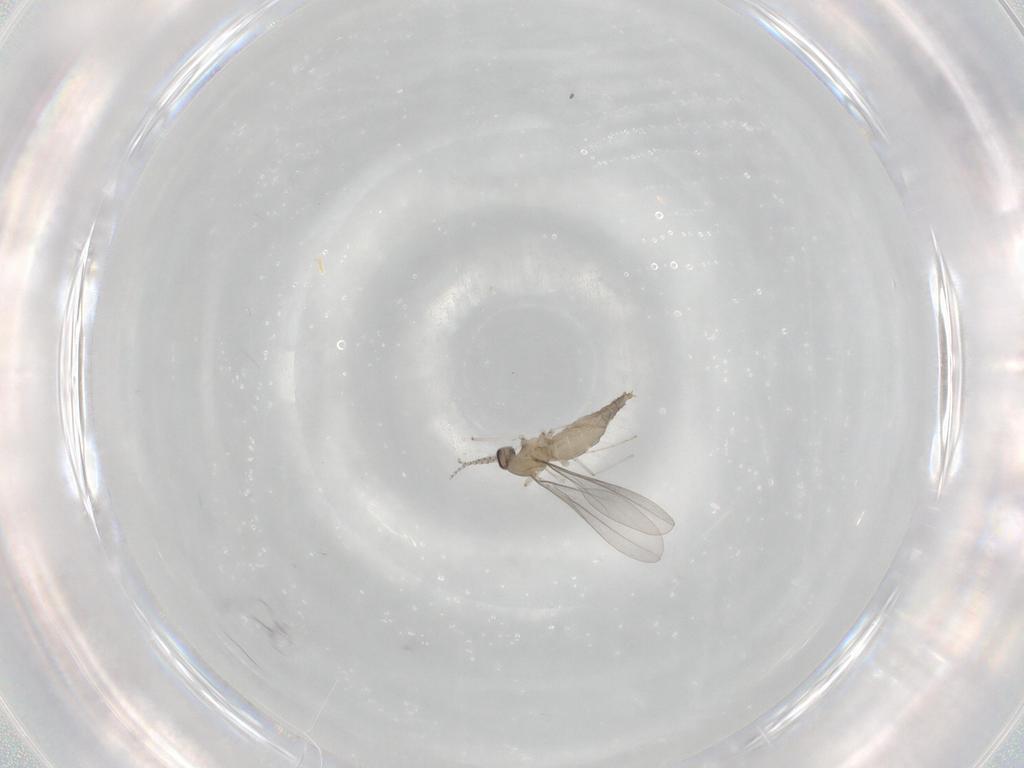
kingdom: Animalia
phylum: Arthropoda
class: Insecta
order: Diptera
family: Cecidomyiidae
